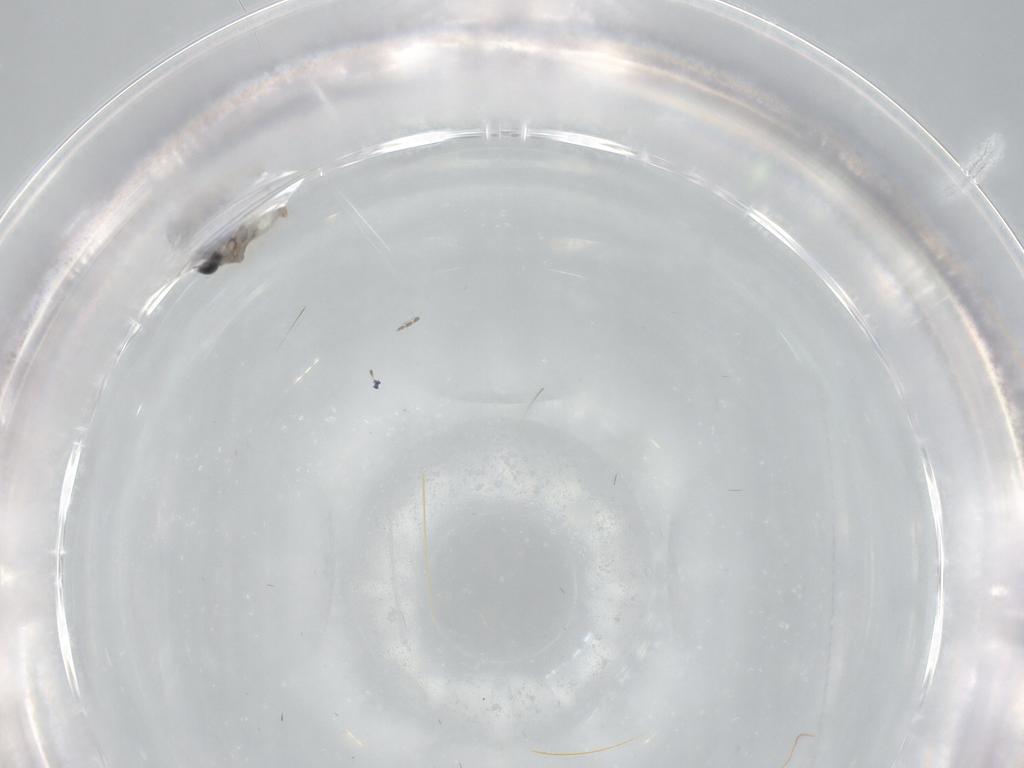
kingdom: Animalia
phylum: Arthropoda
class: Insecta
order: Diptera
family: Psychodidae
